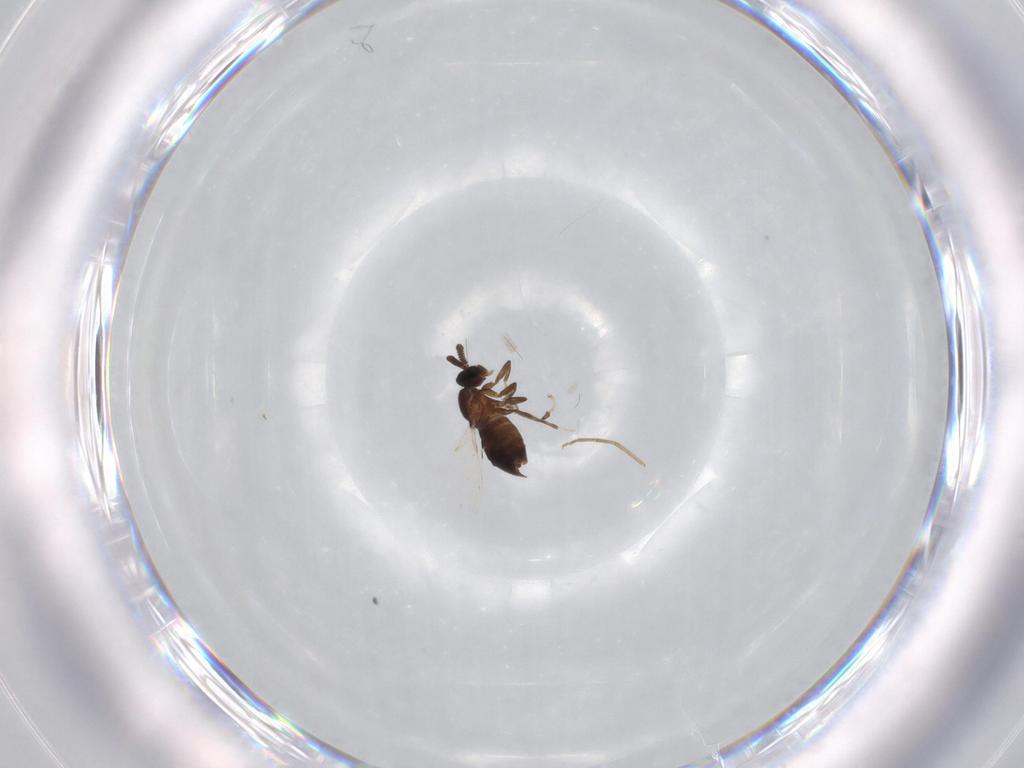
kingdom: Animalia
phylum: Arthropoda
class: Insecta
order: Diptera
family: Scatopsidae
